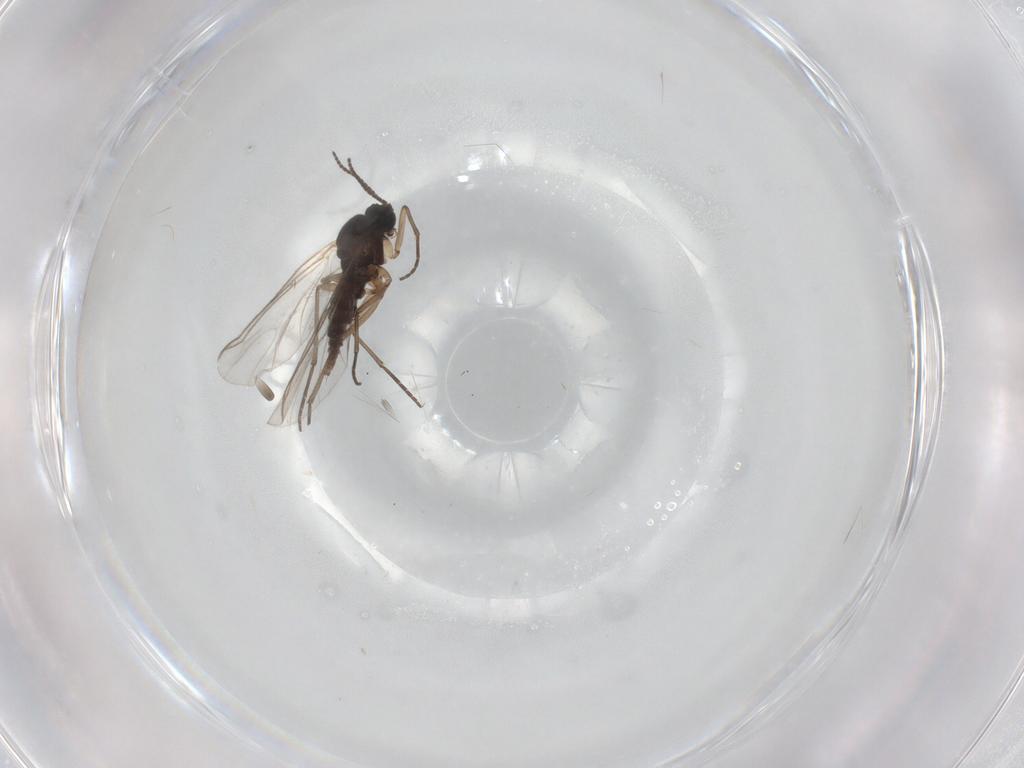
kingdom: Animalia
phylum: Arthropoda
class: Insecta
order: Diptera
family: Sciaridae
